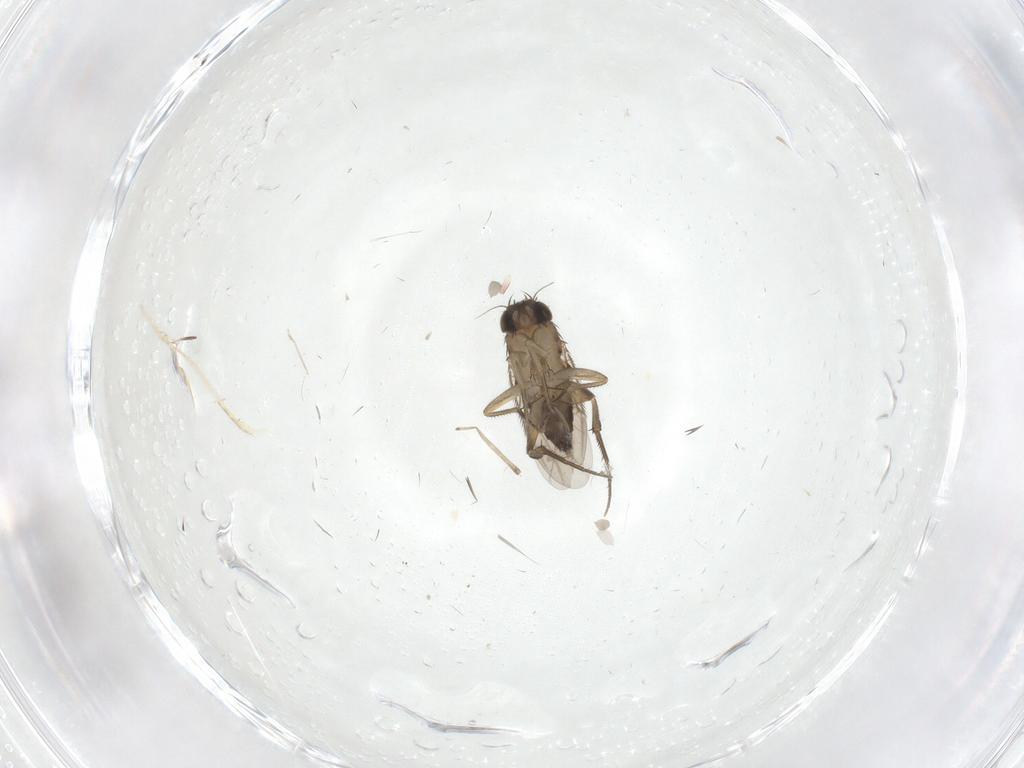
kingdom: Animalia
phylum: Arthropoda
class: Insecta
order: Diptera
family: Phoridae
